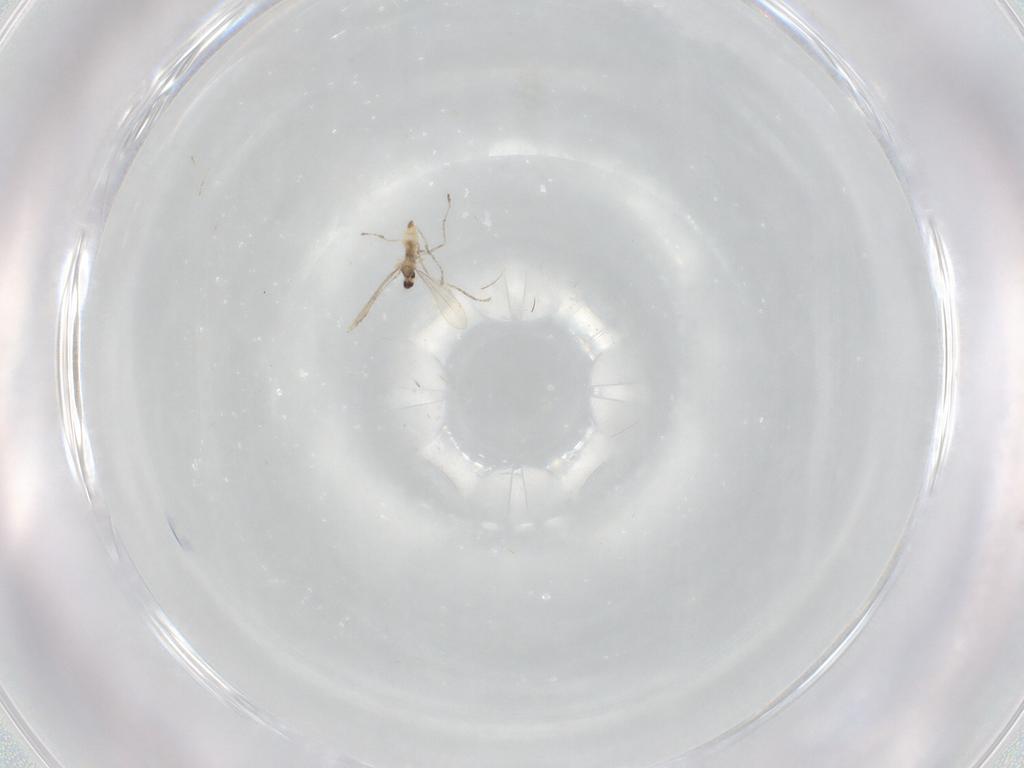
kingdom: Animalia
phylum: Arthropoda
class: Insecta
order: Diptera
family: Cecidomyiidae
